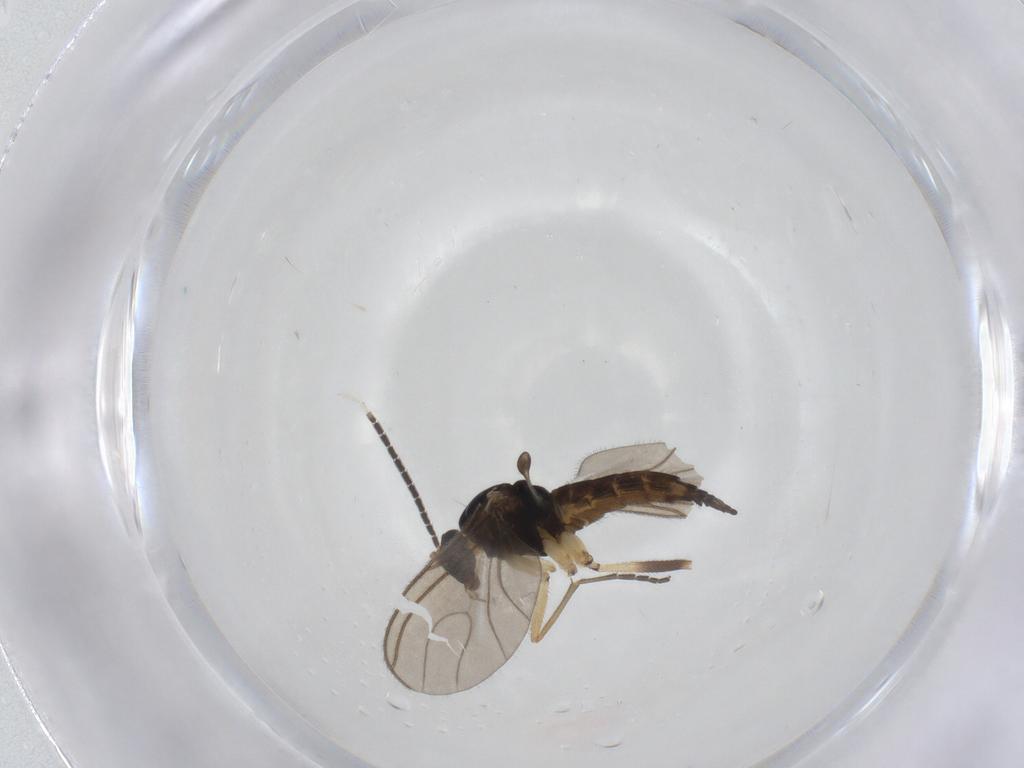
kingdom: Animalia
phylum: Arthropoda
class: Insecta
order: Diptera
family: Sciaridae
